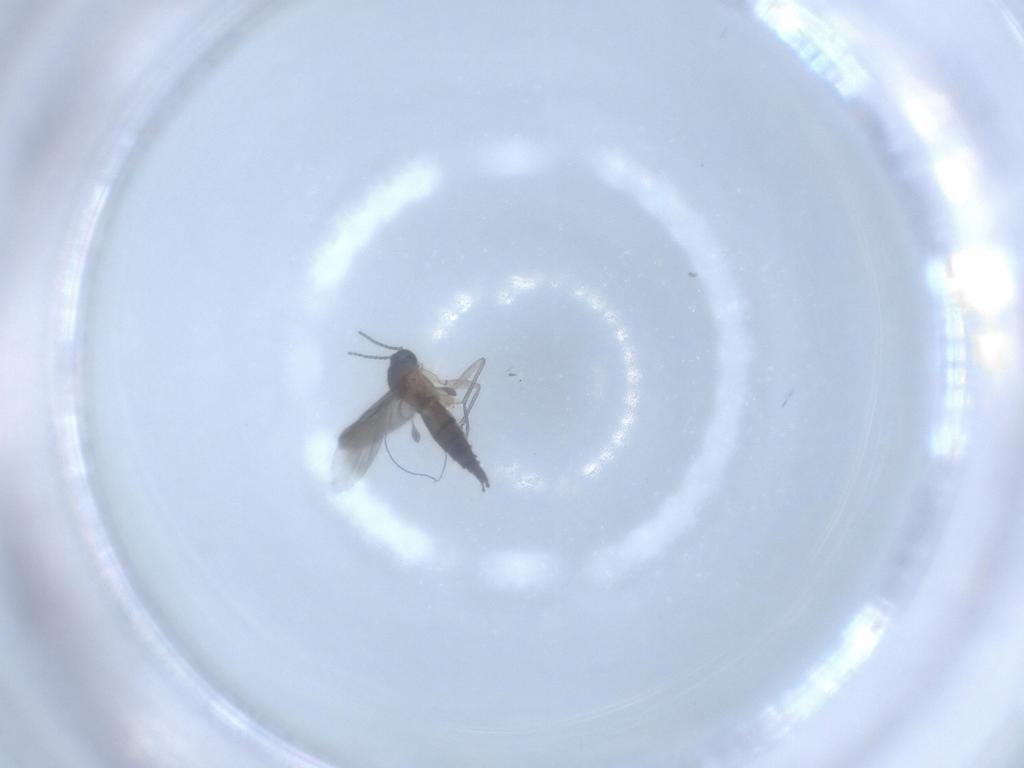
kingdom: Animalia
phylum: Arthropoda
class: Insecta
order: Diptera
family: Sciaridae
